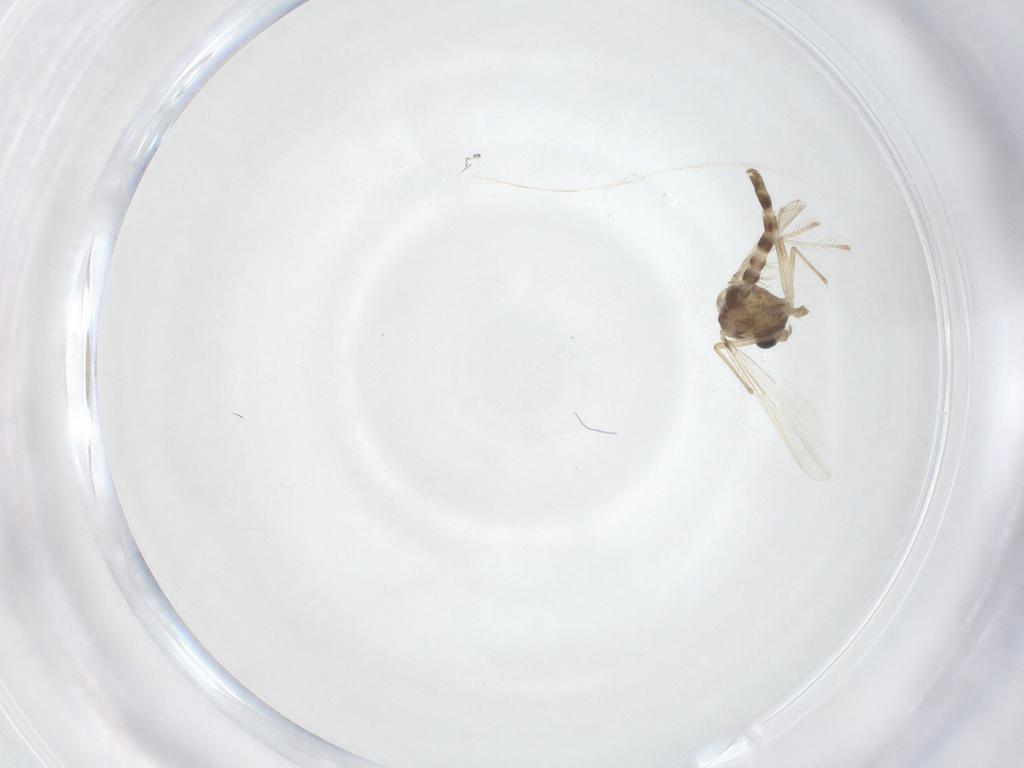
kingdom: Animalia
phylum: Arthropoda
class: Insecta
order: Diptera
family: Chironomidae
